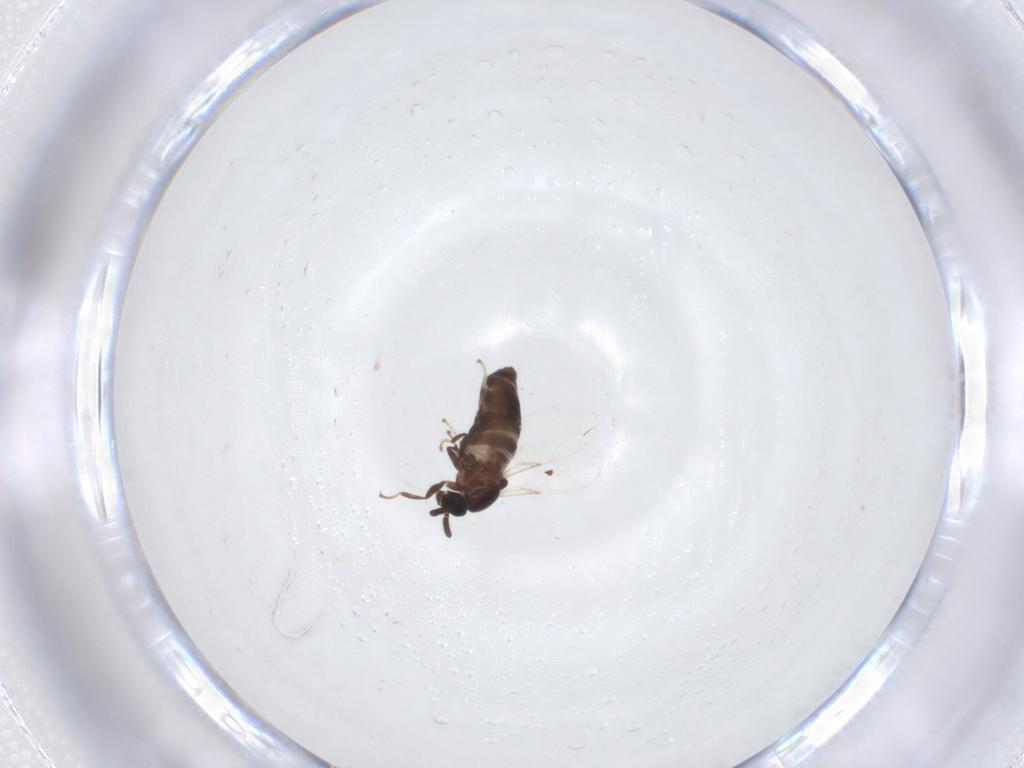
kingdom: Animalia
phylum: Arthropoda
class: Insecta
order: Diptera
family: Scatopsidae
